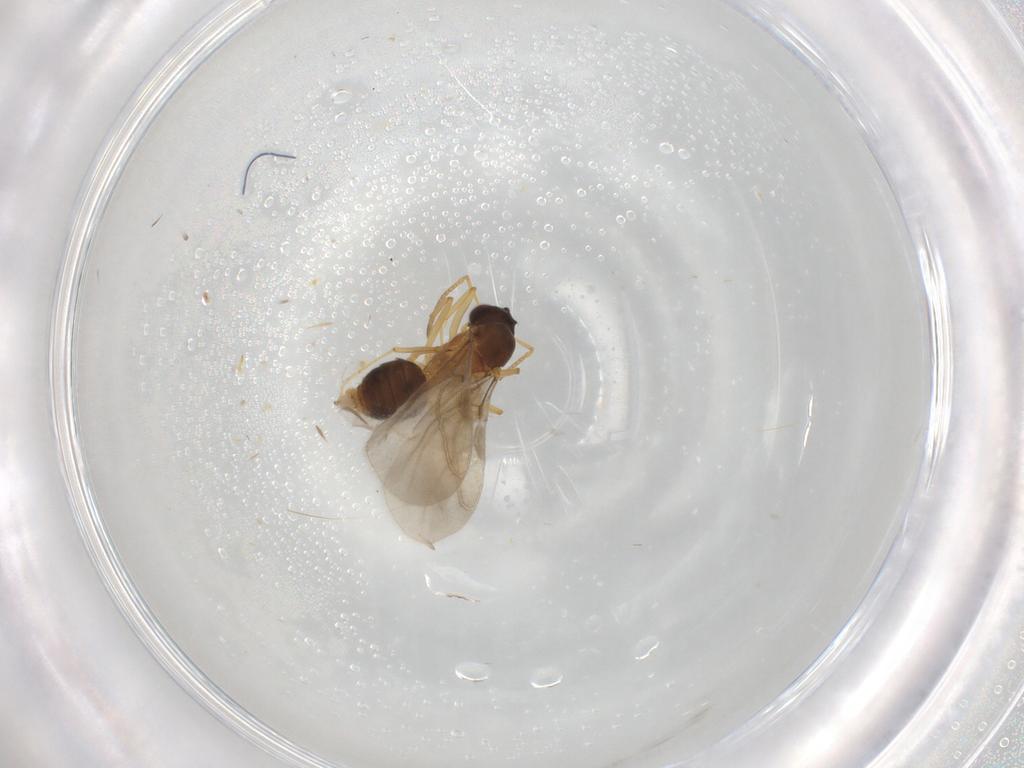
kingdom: Animalia
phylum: Arthropoda
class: Insecta
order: Hymenoptera
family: Formicidae
